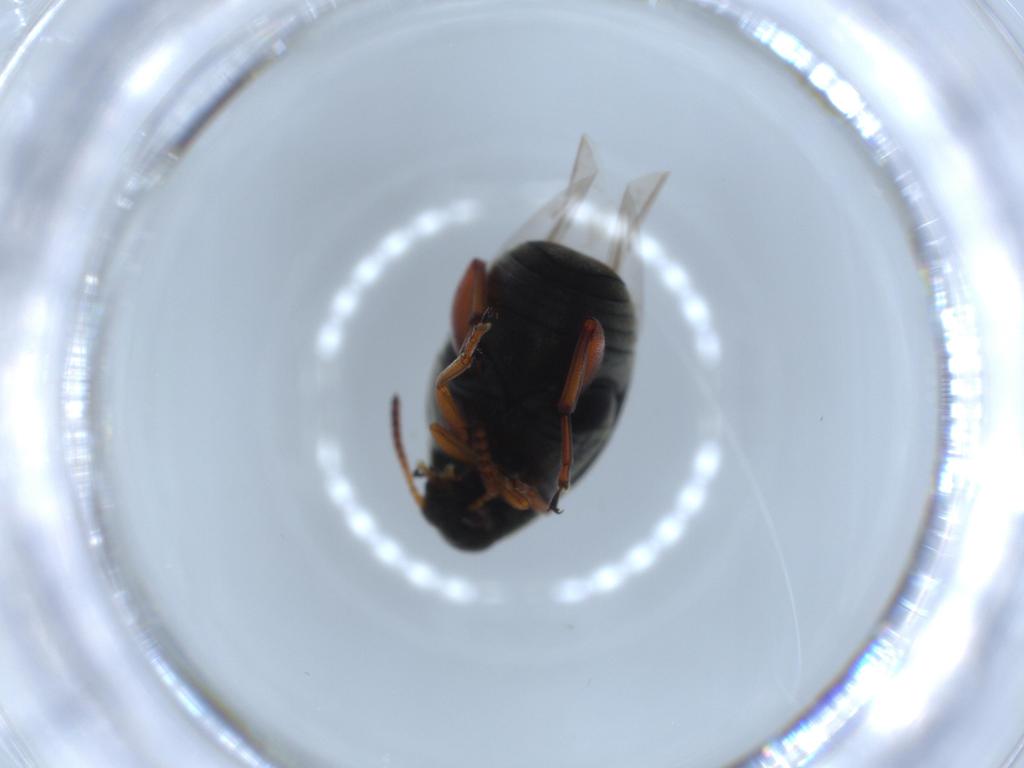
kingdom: Animalia
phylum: Arthropoda
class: Insecta
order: Coleoptera
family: Chrysomelidae
